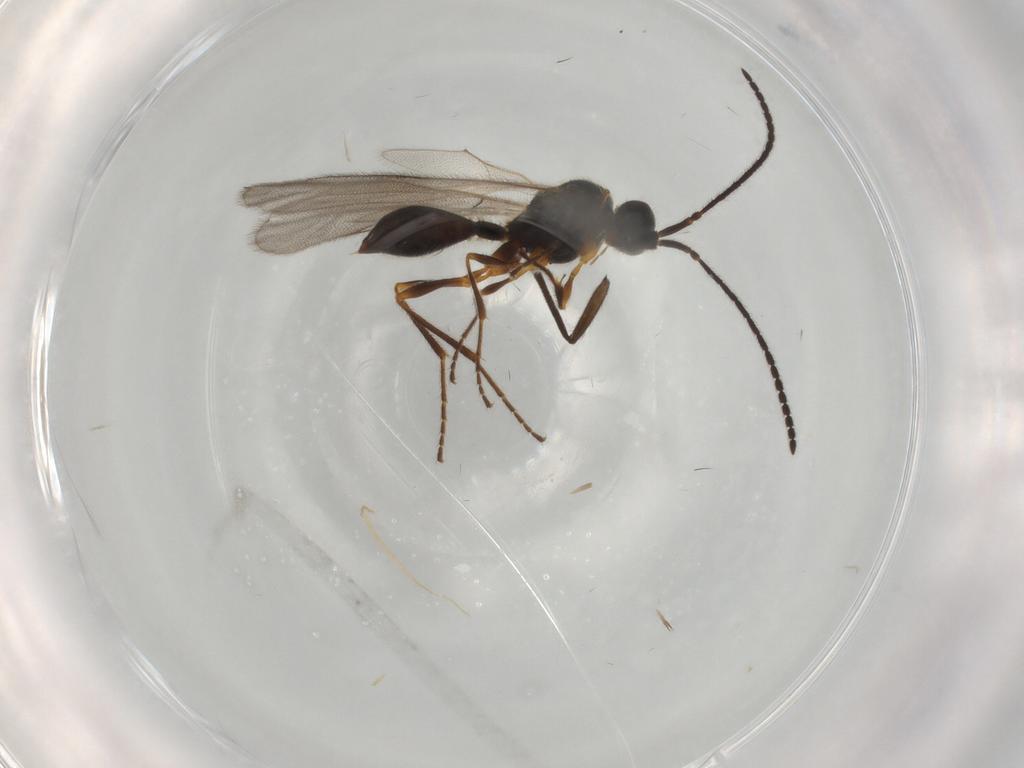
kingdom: Animalia
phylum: Arthropoda
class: Insecta
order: Hymenoptera
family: Diapriidae
